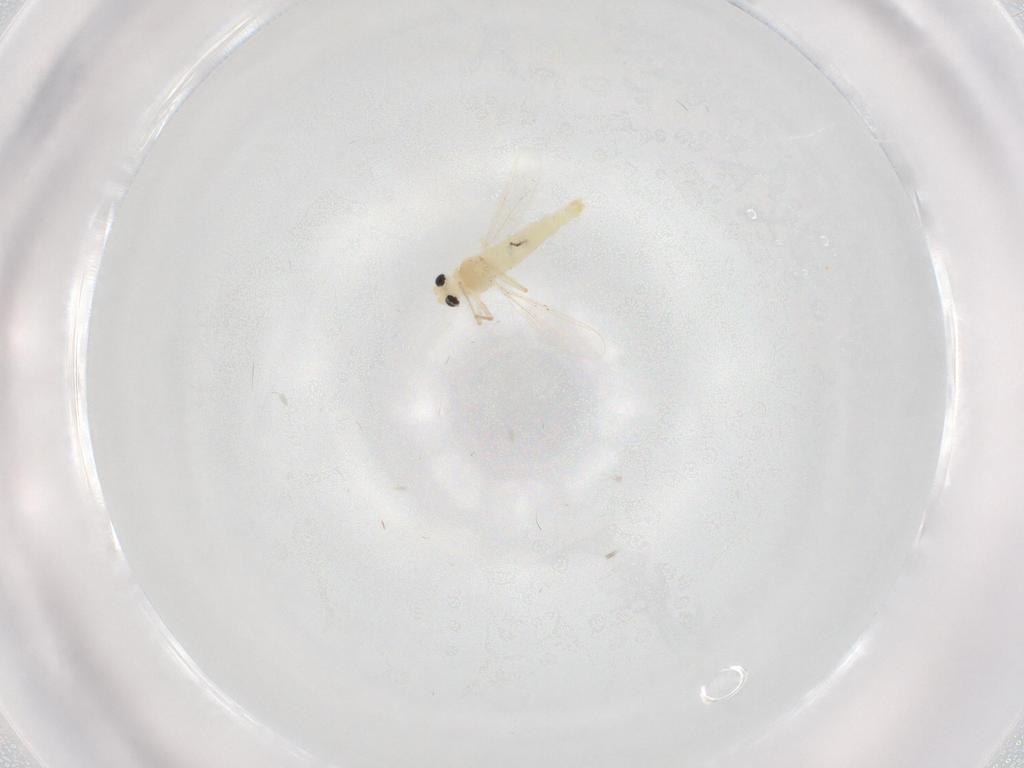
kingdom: Animalia
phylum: Arthropoda
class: Insecta
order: Diptera
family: Chironomidae
